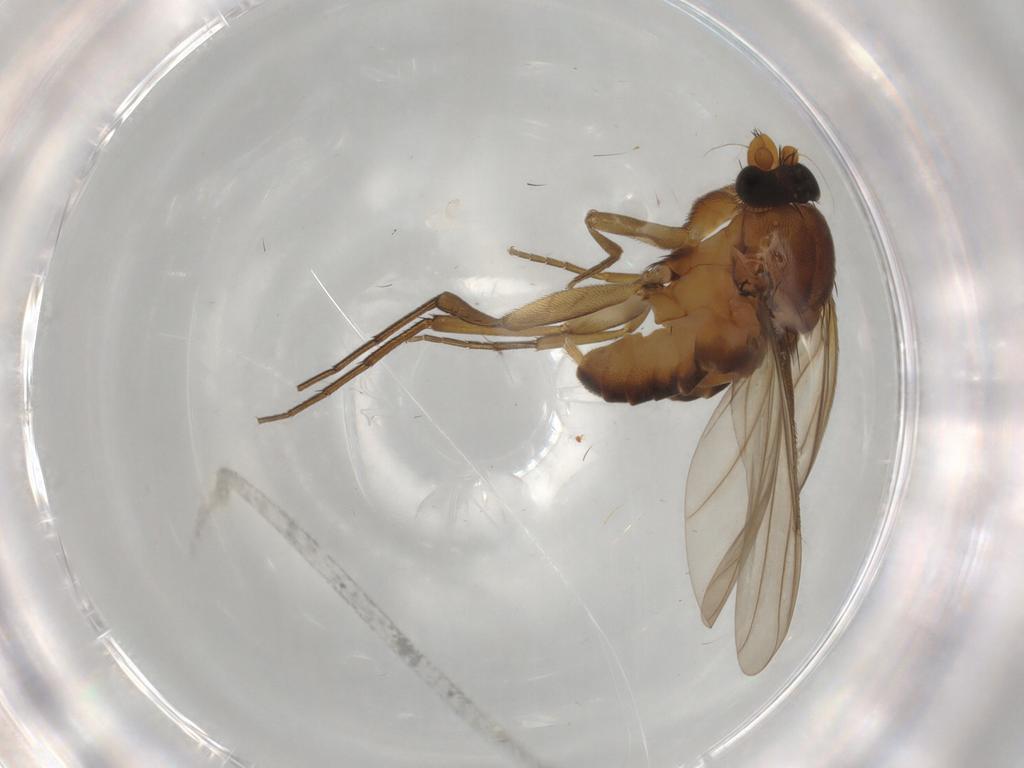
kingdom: Animalia
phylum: Arthropoda
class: Insecta
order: Diptera
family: Phoridae
